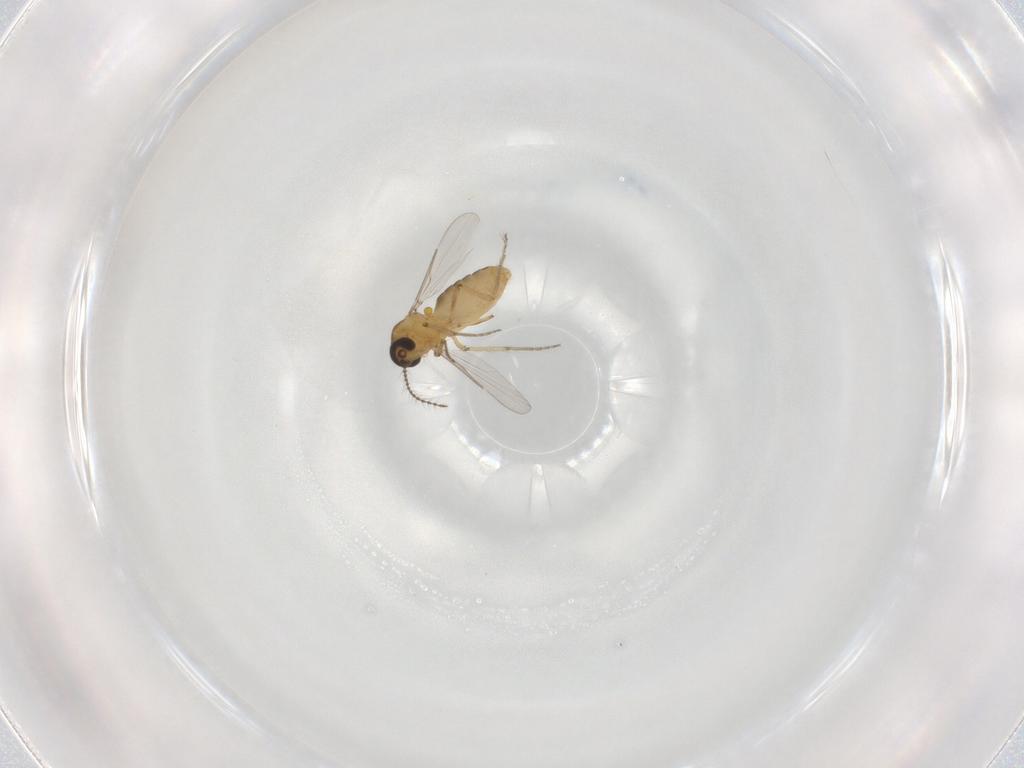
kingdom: Animalia
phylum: Arthropoda
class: Insecta
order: Diptera
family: Ceratopogonidae
